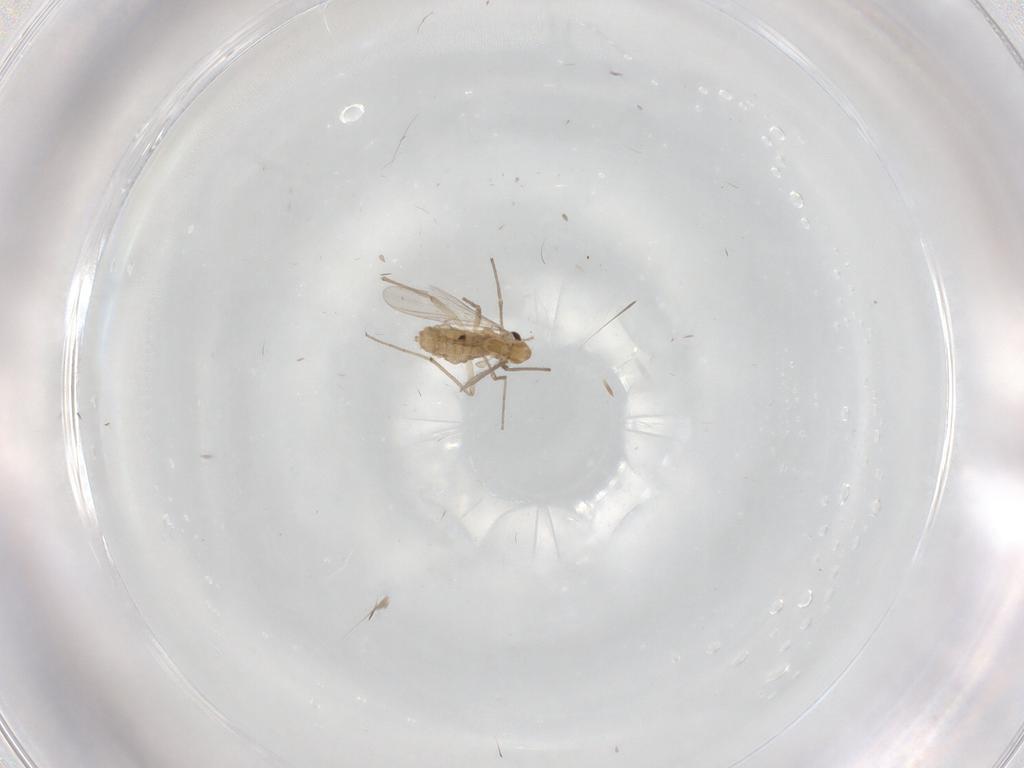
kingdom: Animalia
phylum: Arthropoda
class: Insecta
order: Diptera
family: Chironomidae
